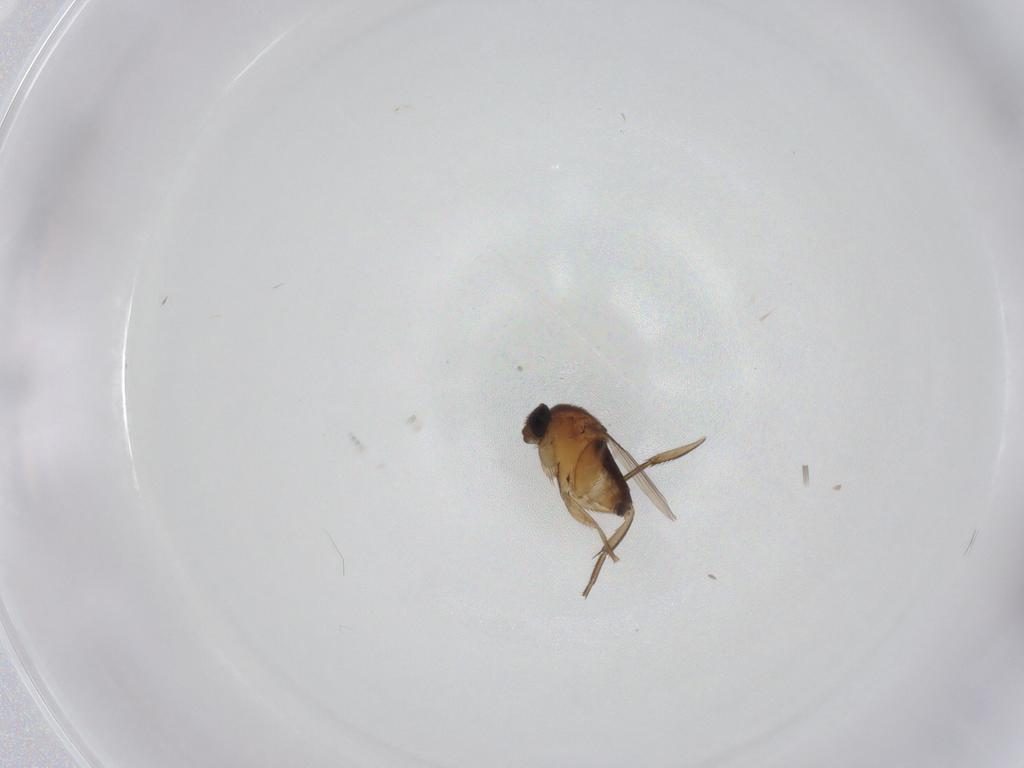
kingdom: Animalia
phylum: Arthropoda
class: Insecta
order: Diptera
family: Phoridae
